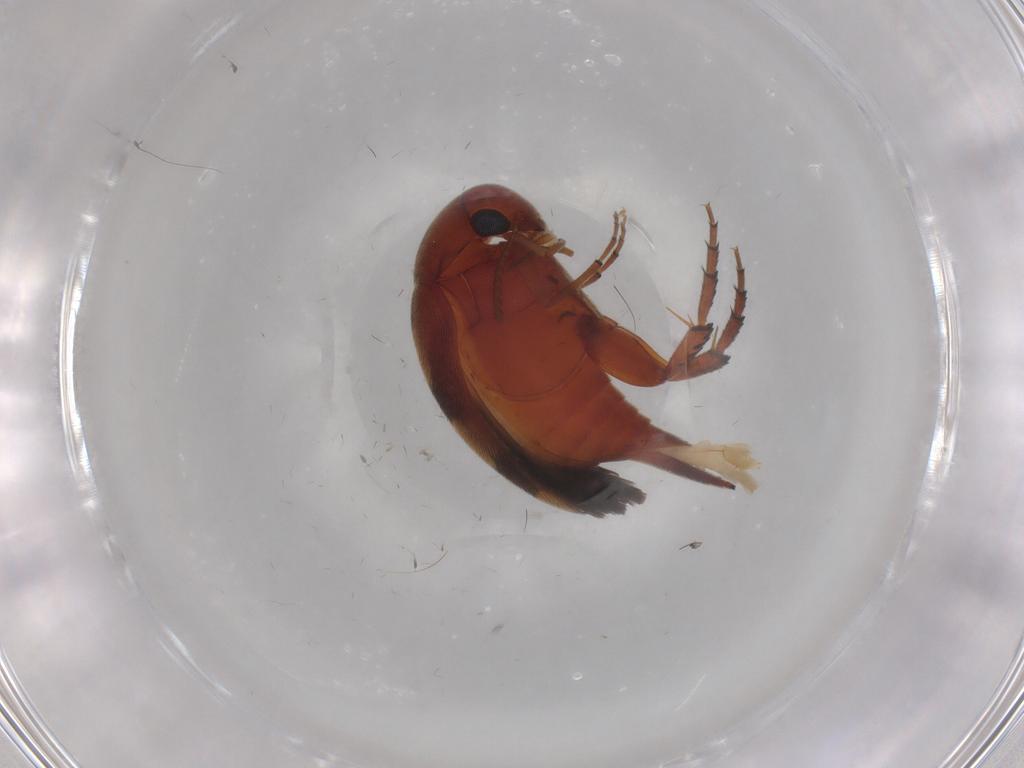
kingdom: Animalia
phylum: Arthropoda
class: Insecta
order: Coleoptera
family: Mordellidae
